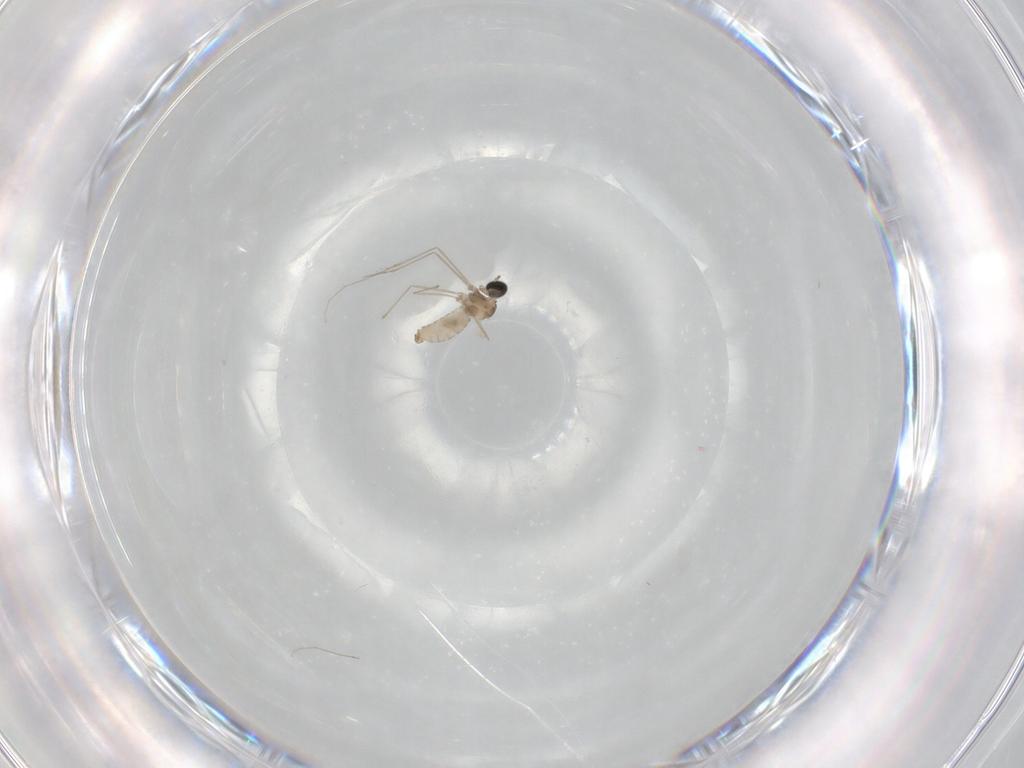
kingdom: Animalia
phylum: Arthropoda
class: Insecta
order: Diptera
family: Cecidomyiidae
